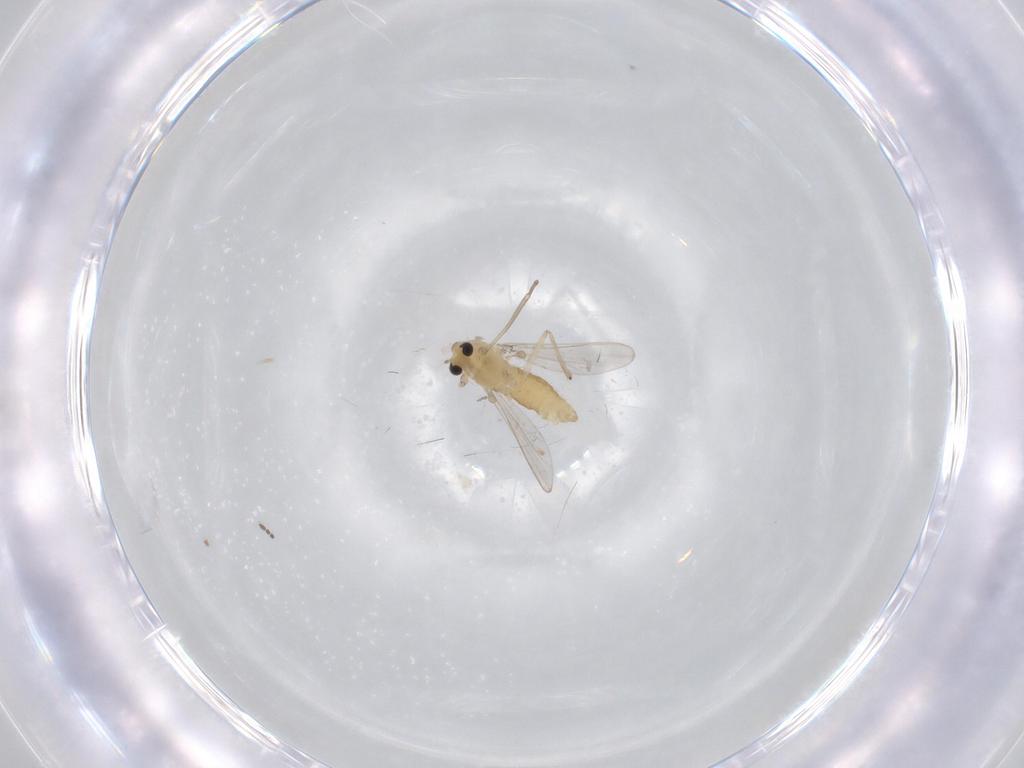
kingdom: Animalia
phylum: Arthropoda
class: Insecta
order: Diptera
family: Chironomidae
